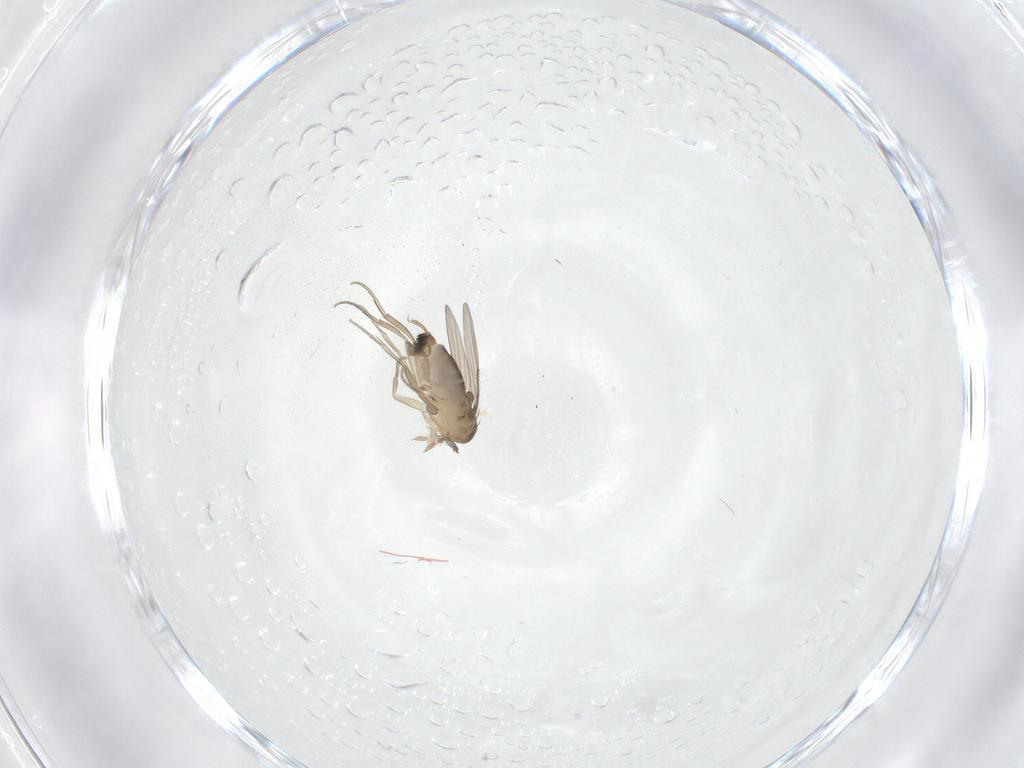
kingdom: Animalia
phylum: Arthropoda
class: Insecta
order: Diptera
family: Phoridae
